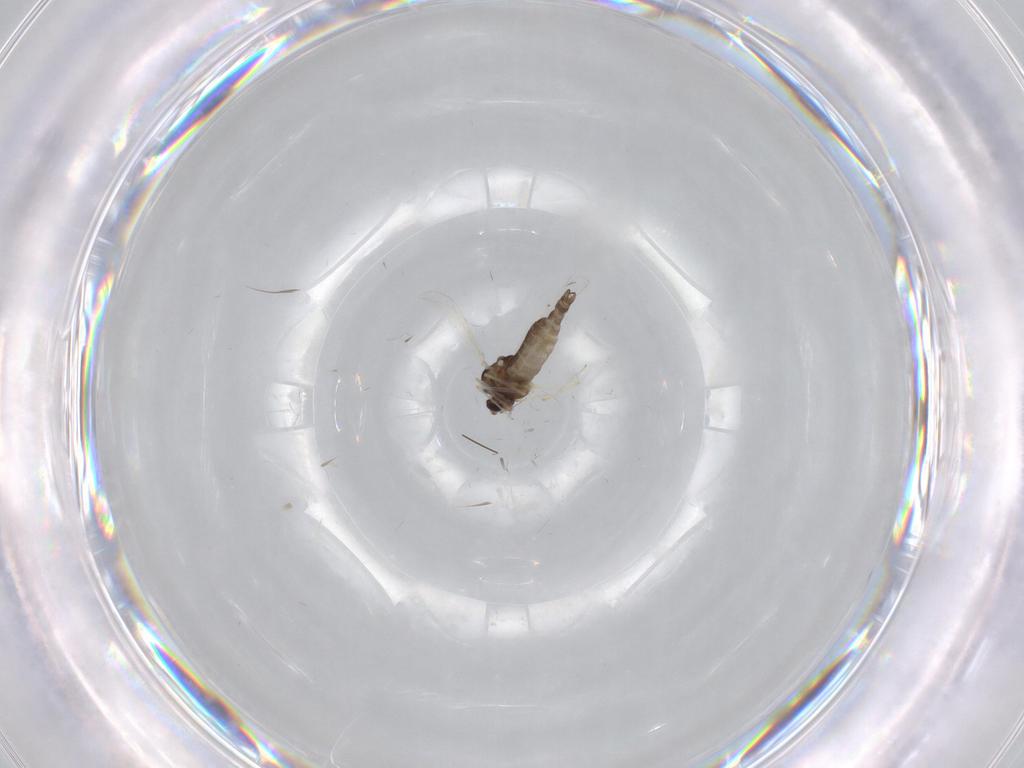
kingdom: Animalia
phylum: Arthropoda
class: Insecta
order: Diptera
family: Chironomidae
